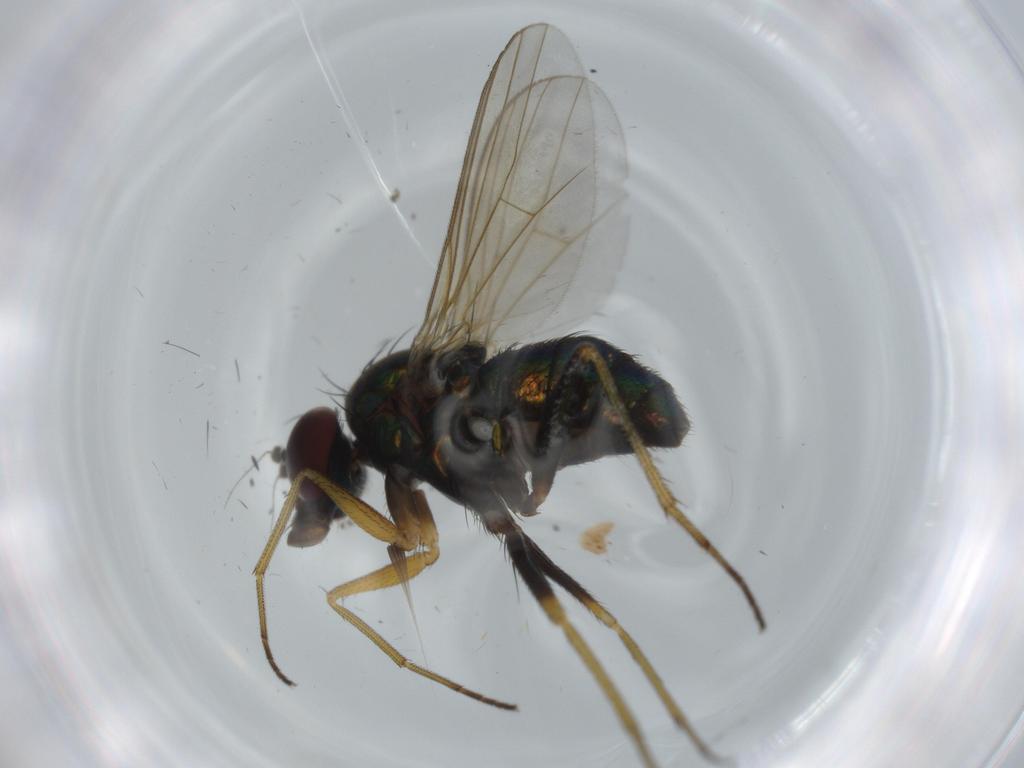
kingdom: Animalia
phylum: Arthropoda
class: Insecta
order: Diptera
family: Dolichopodidae
